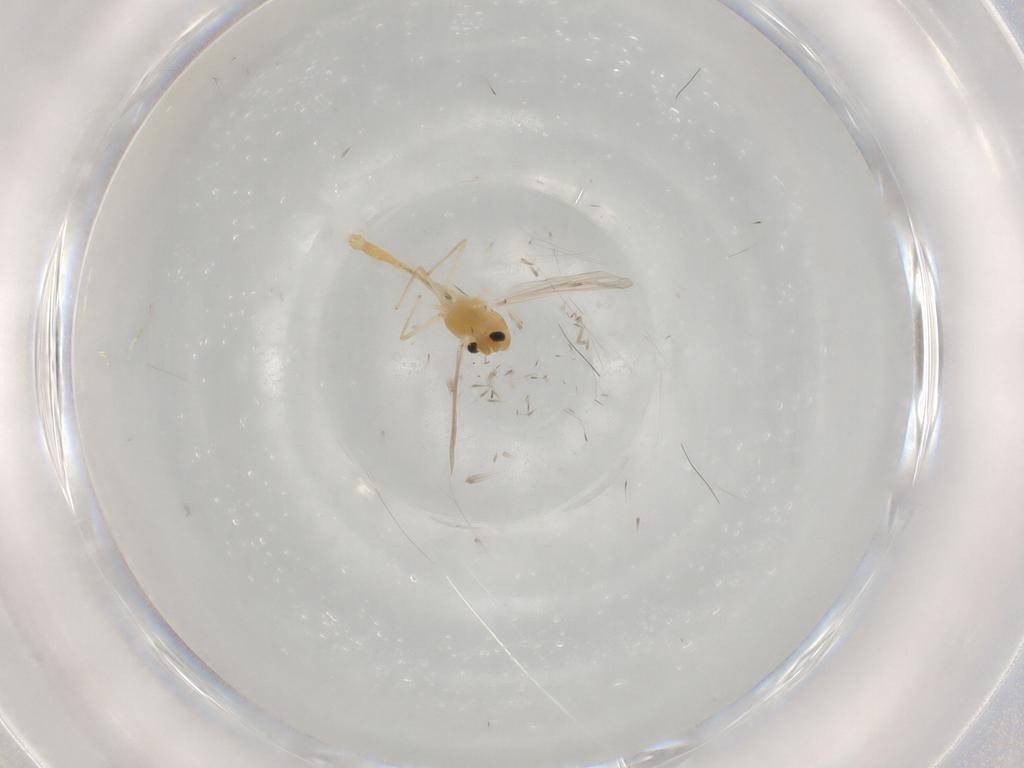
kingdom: Animalia
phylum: Arthropoda
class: Insecta
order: Diptera
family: Chironomidae
